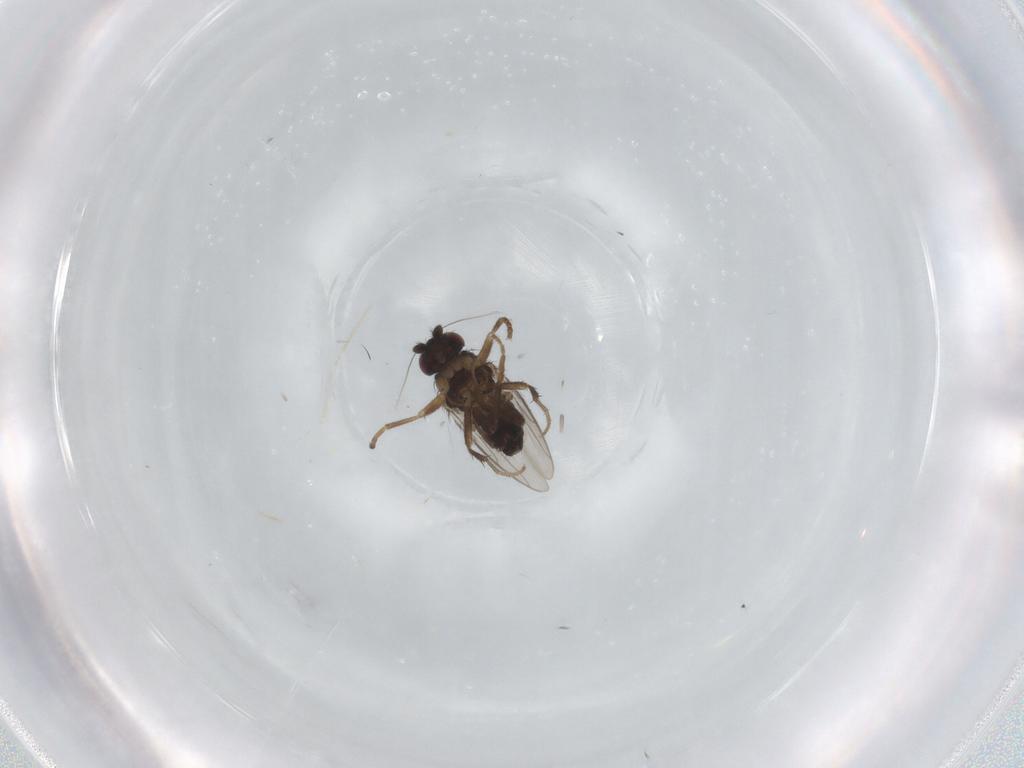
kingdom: Animalia
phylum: Arthropoda
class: Insecta
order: Diptera
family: Sphaeroceridae
